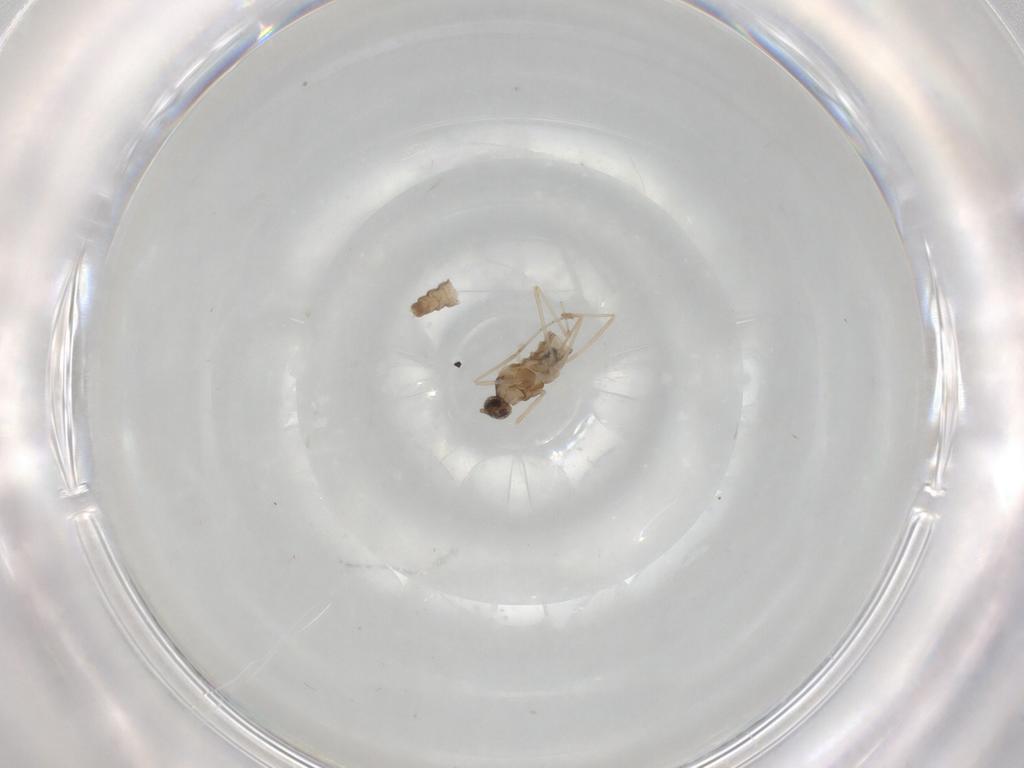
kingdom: Animalia
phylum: Arthropoda
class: Insecta
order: Diptera
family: Cecidomyiidae
